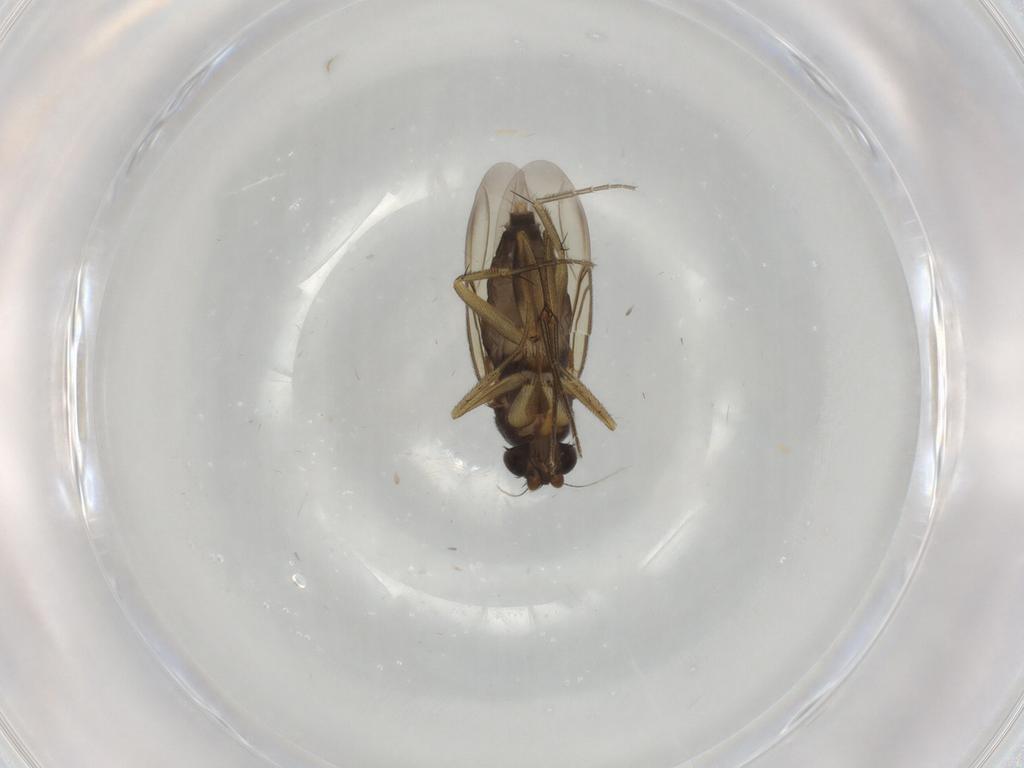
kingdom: Animalia
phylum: Arthropoda
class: Insecta
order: Diptera
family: Phoridae
